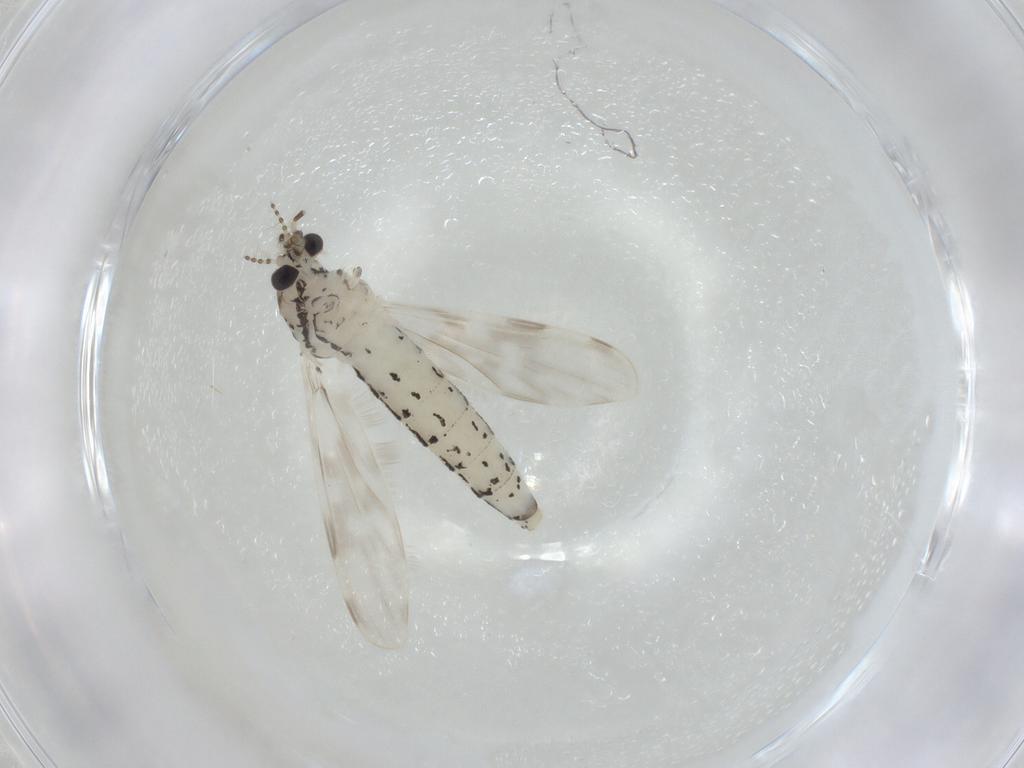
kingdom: Animalia
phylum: Arthropoda
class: Insecta
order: Diptera
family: Chaoboridae
